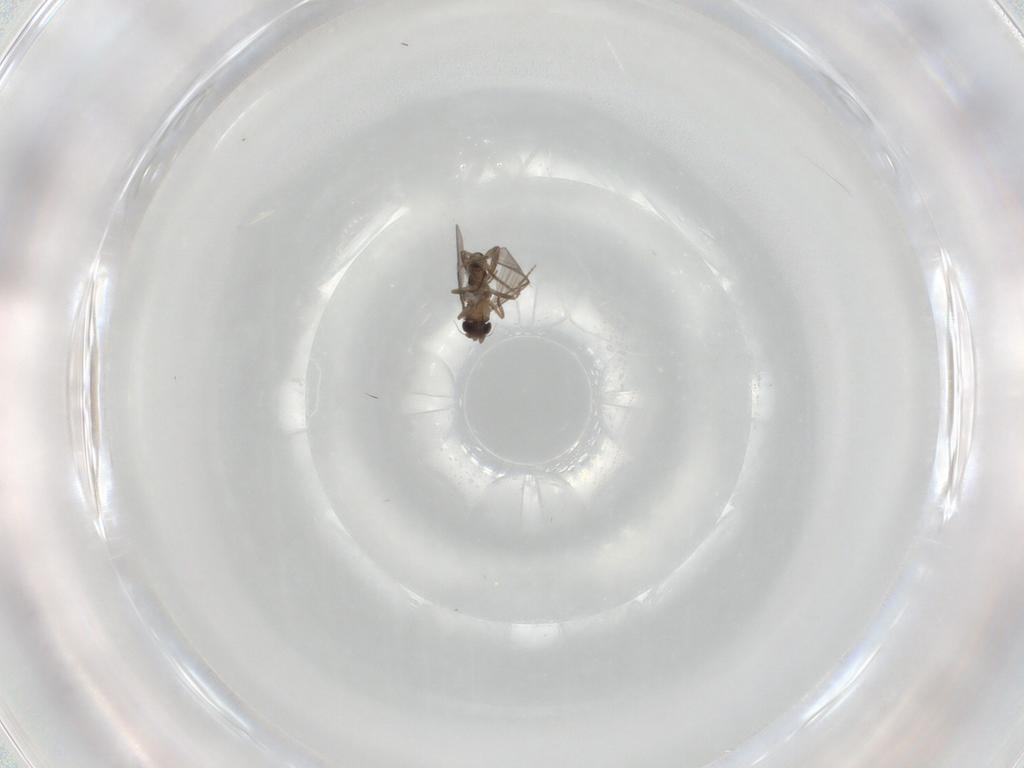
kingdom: Animalia
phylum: Arthropoda
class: Insecta
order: Diptera
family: Phoridae
